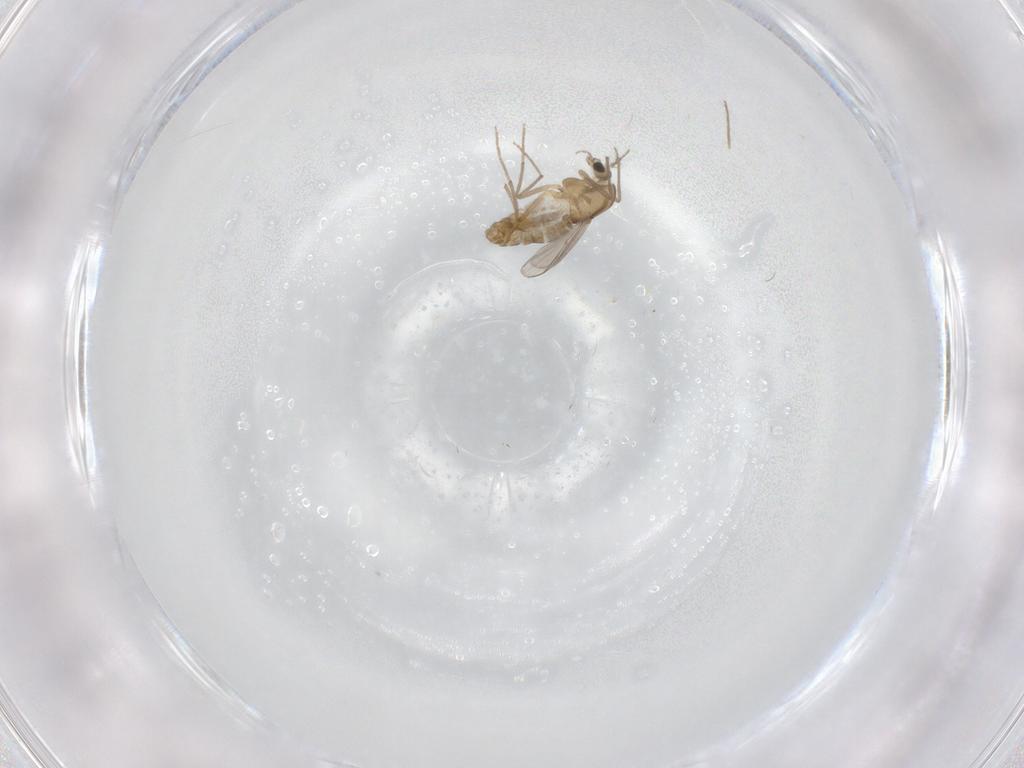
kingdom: Animalia
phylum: Arthropoda
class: Insecta
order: Diptera
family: Chironomidae
